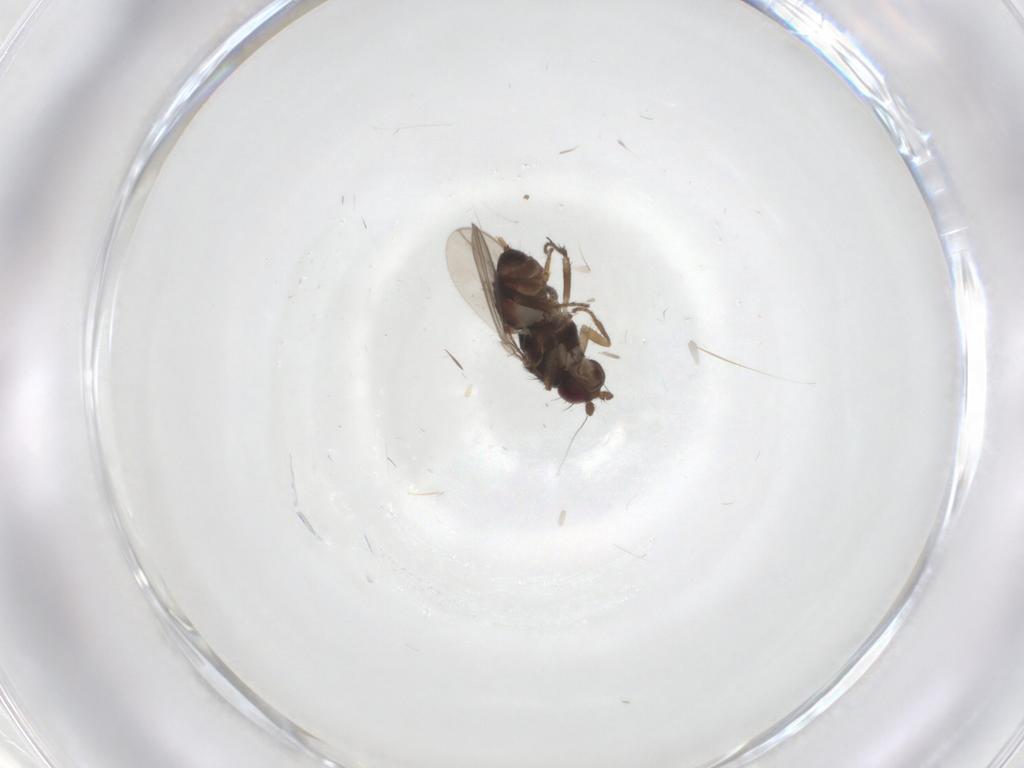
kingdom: Animalia
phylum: Arthropoda
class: Insecta
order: Diptera
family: Sphaeroceridae
